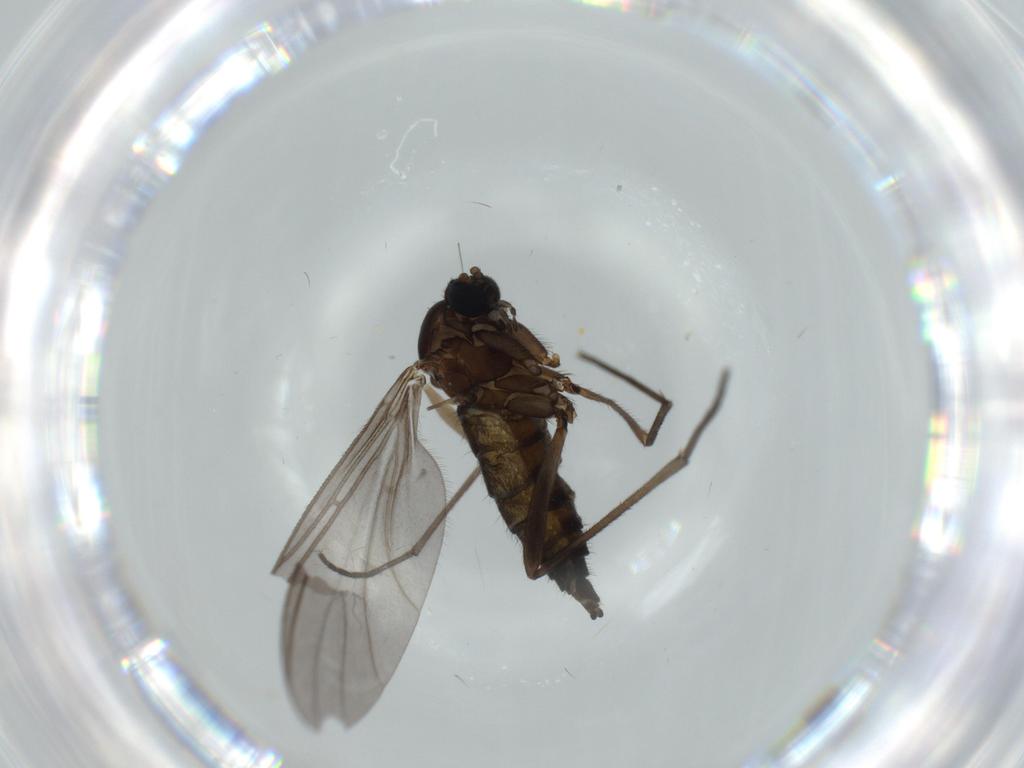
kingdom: Animalia
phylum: Arthropoda
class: Insecta
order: Diptera
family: Sciaridae
